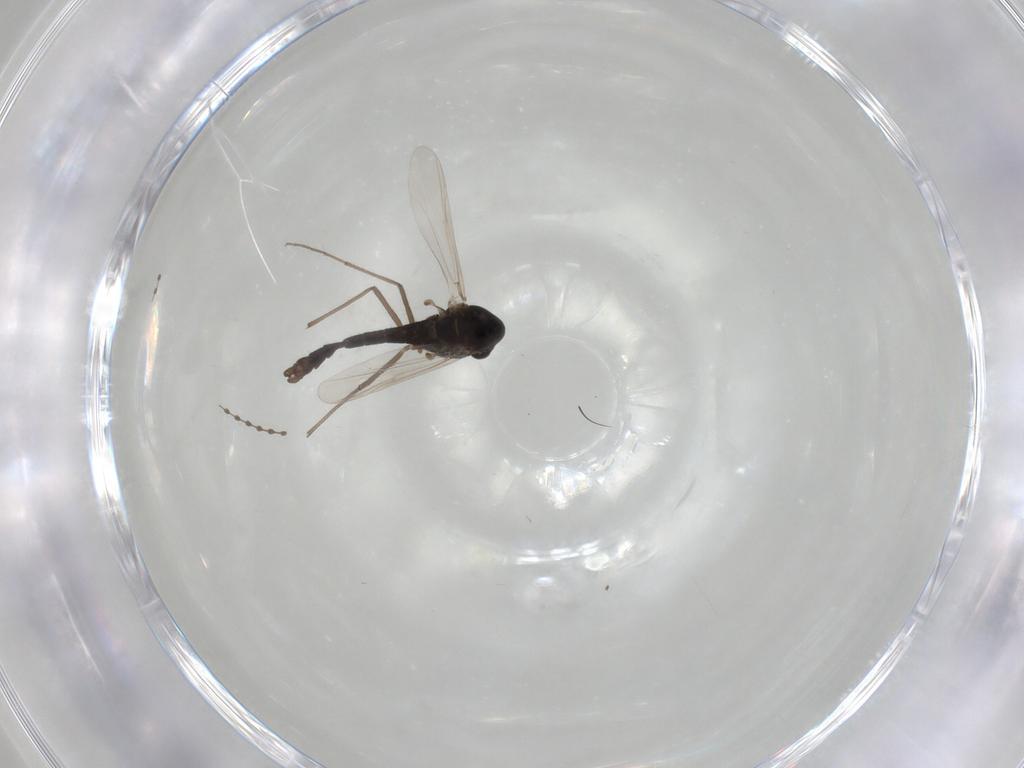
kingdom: Animalia
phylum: Arthropoda
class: Insecta
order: Diptera
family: Chironomidae
